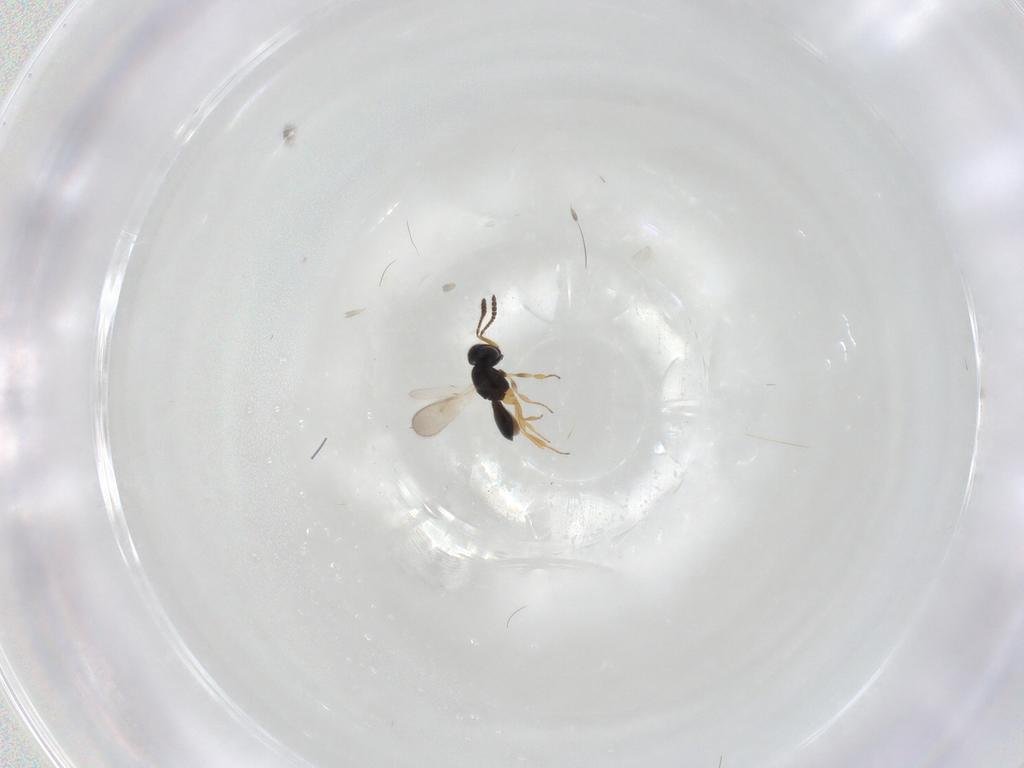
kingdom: Animalia
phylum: Arthropoda
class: Insecta
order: Hymenoptera
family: Scelionidae
